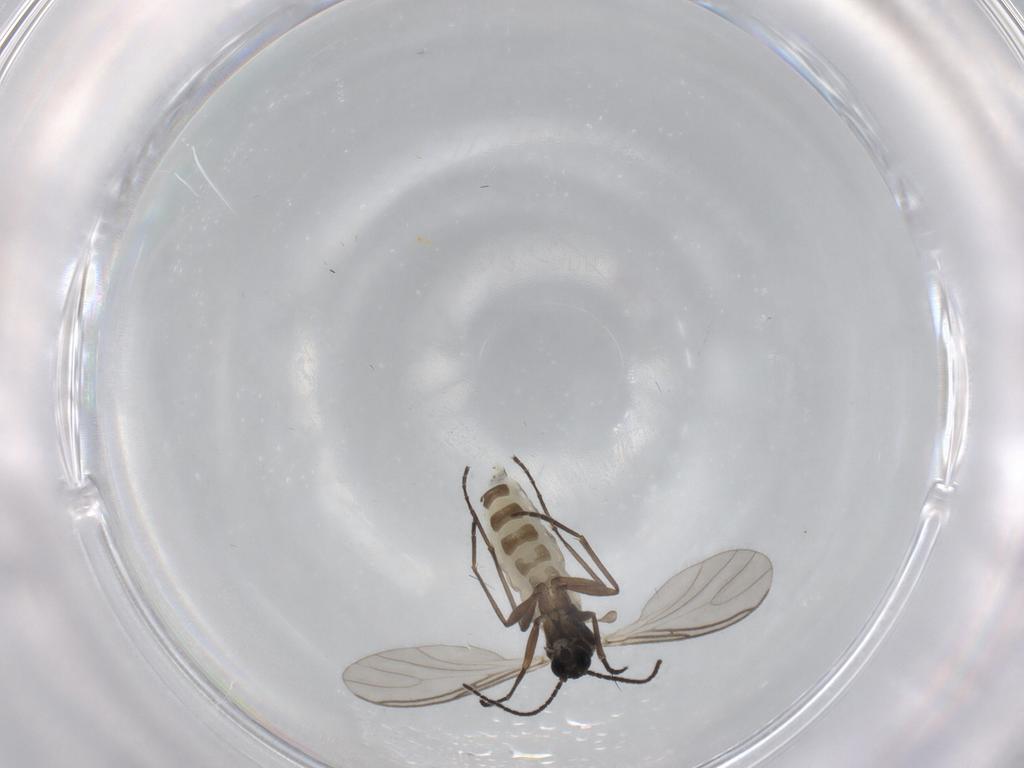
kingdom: Animalia
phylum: Arthropoda
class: Insecta
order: Diptera
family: Sciaridae
